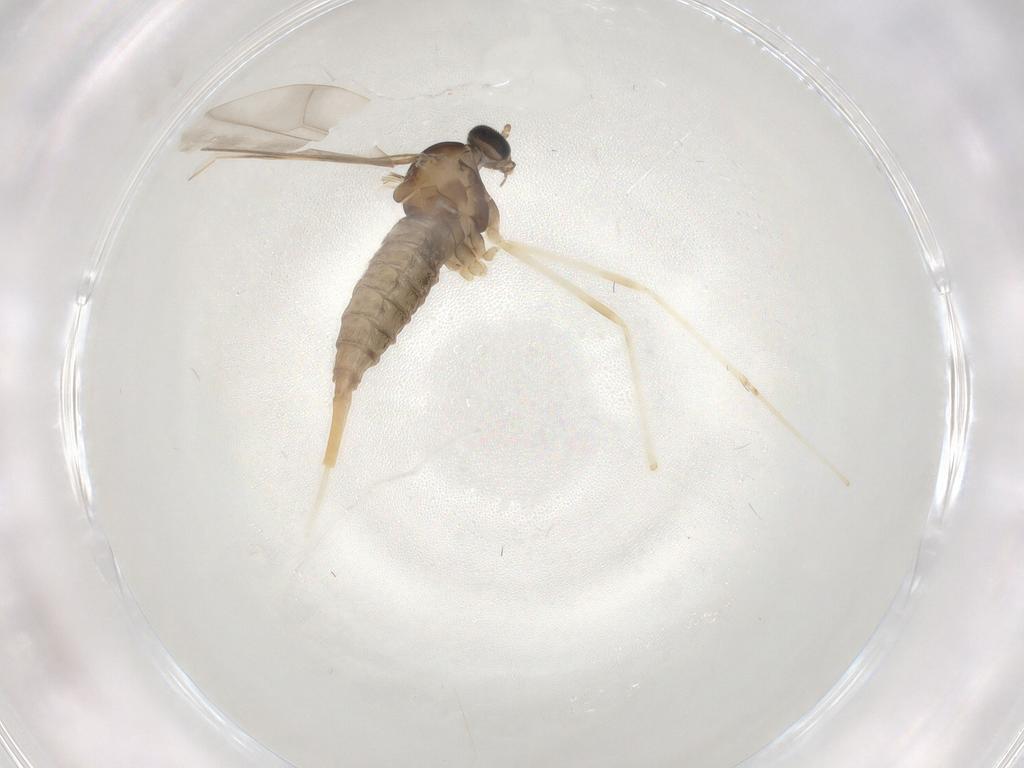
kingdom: Animalia
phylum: Arthropoda
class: Insecta
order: Diptera
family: Cecidomyiidae
